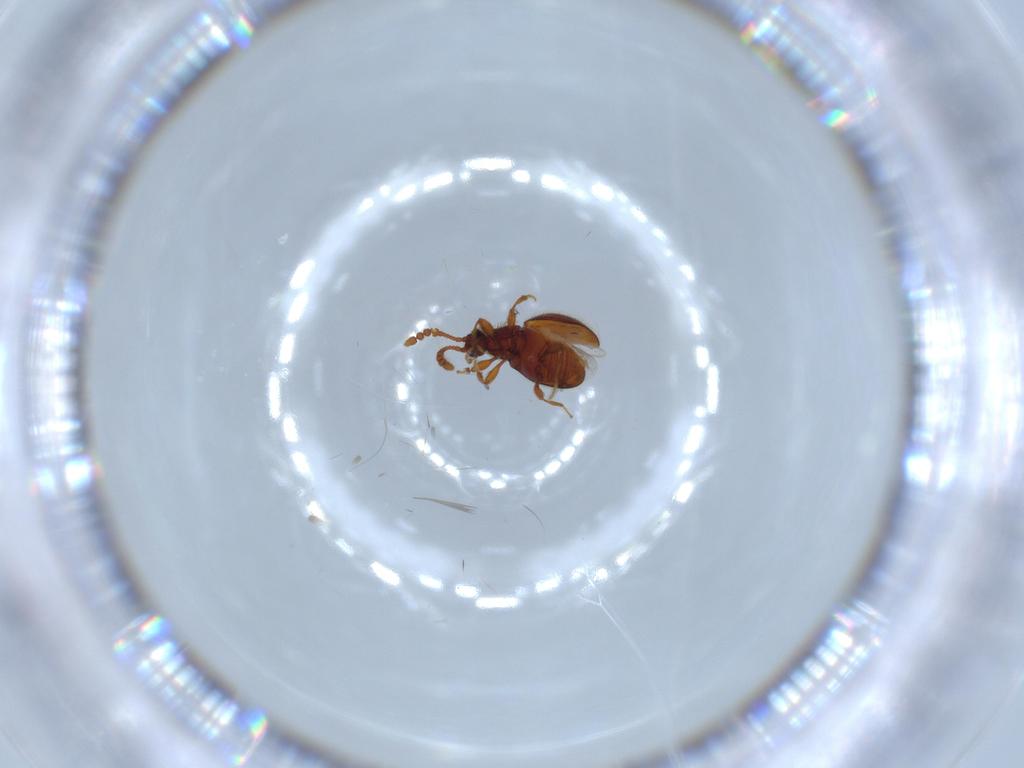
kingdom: Animalia
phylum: Arthropoda
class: Insecta
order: Coleoptera
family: Staphylinidae
